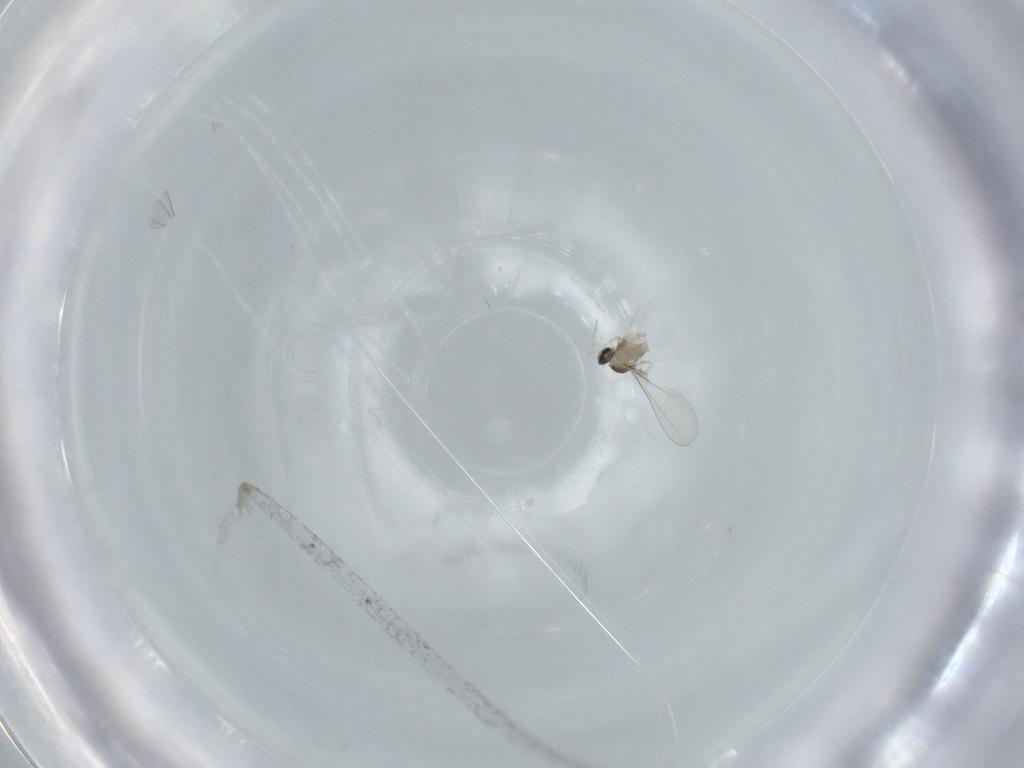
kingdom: Animalia
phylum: Arthropoda
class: Insecta
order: Diptera
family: Cecidomyiidae
